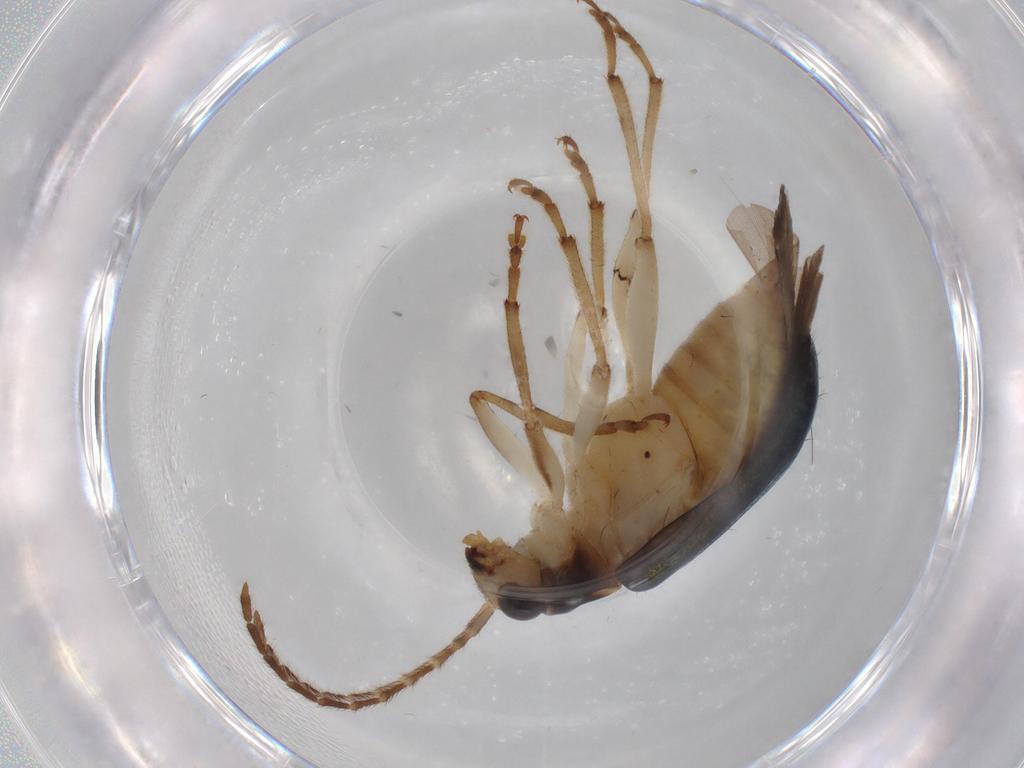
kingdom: Animalia
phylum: Arthropoda
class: Insecta
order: Coleoptera
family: Chrysomelidae
